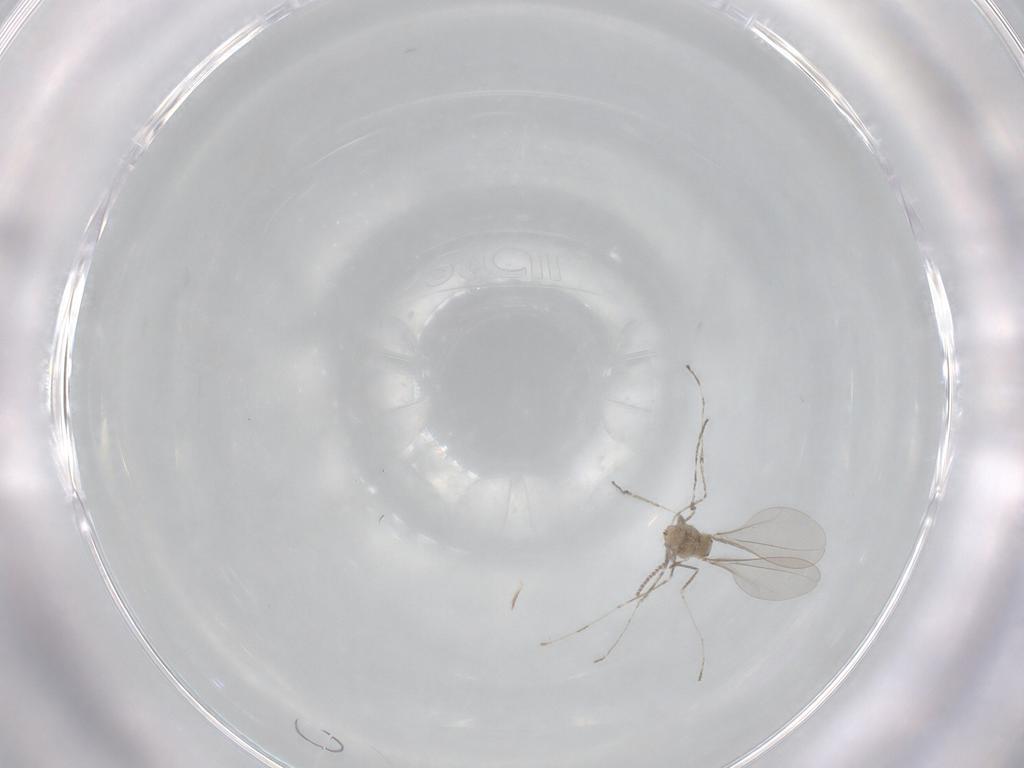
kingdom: Animalia
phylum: Arthropoda
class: Insecta
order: Diptera
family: Cecidomyiidae
